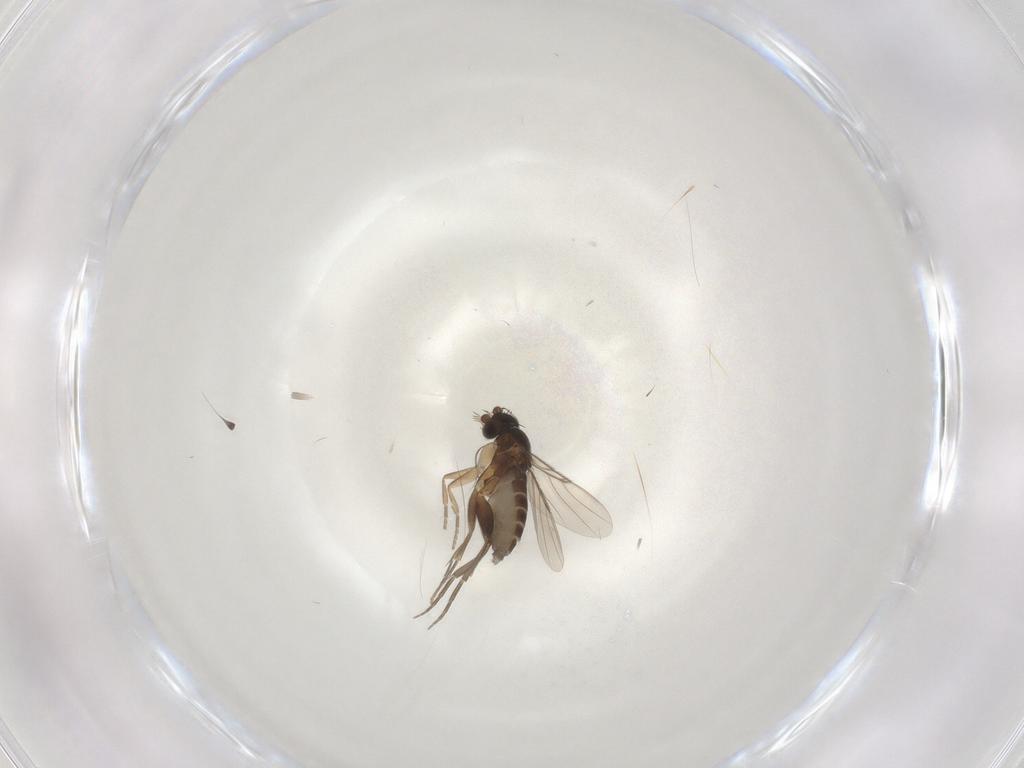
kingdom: Animalia
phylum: Arthropoda
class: Insecta
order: Diptera
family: Phoridae
